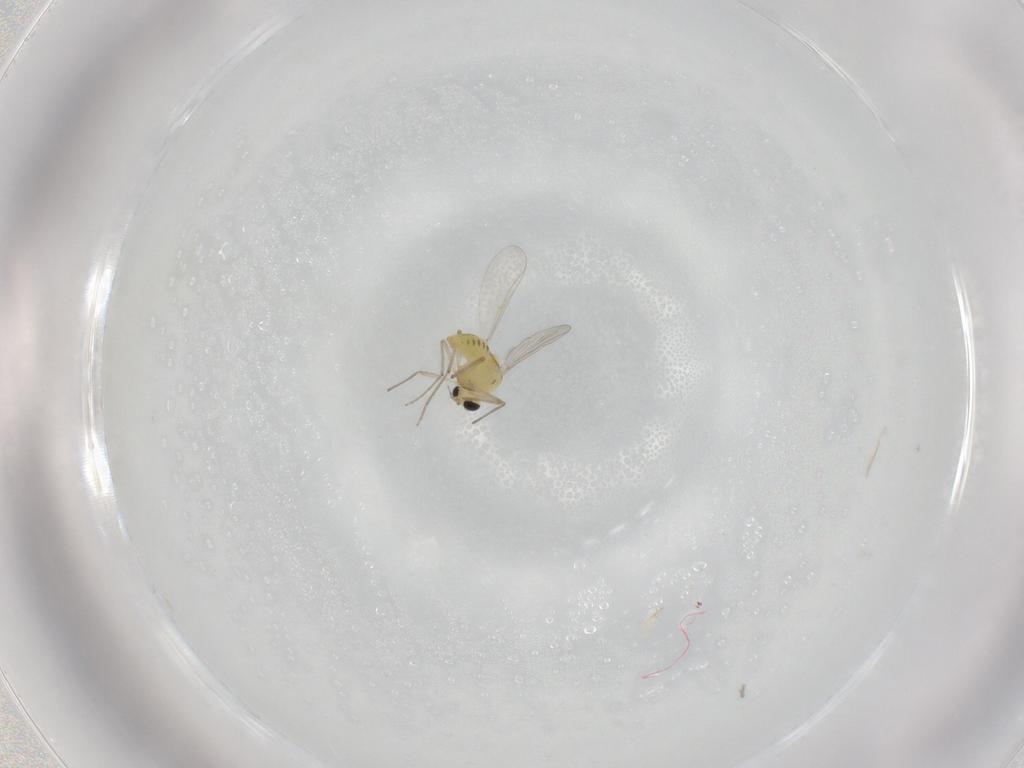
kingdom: Animalia
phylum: Arthropoda
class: Insecta
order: Diptera
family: Chironomidae
